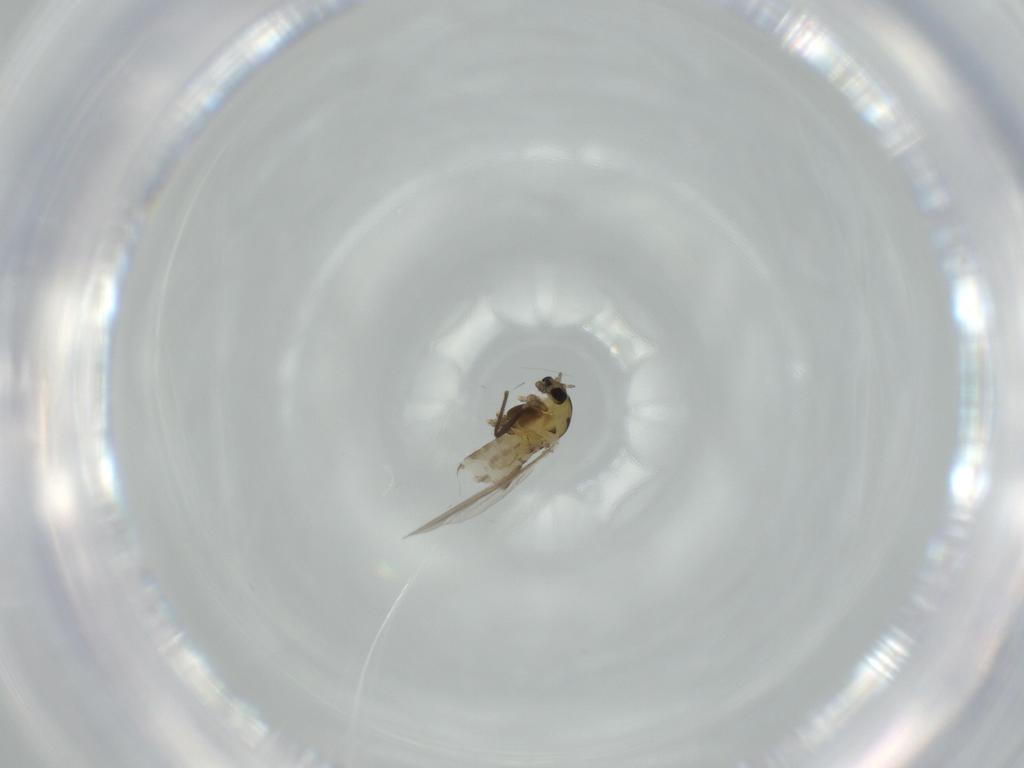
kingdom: Animalia
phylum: Arthropoda
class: Insecta
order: Diptera
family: Chironomidae
